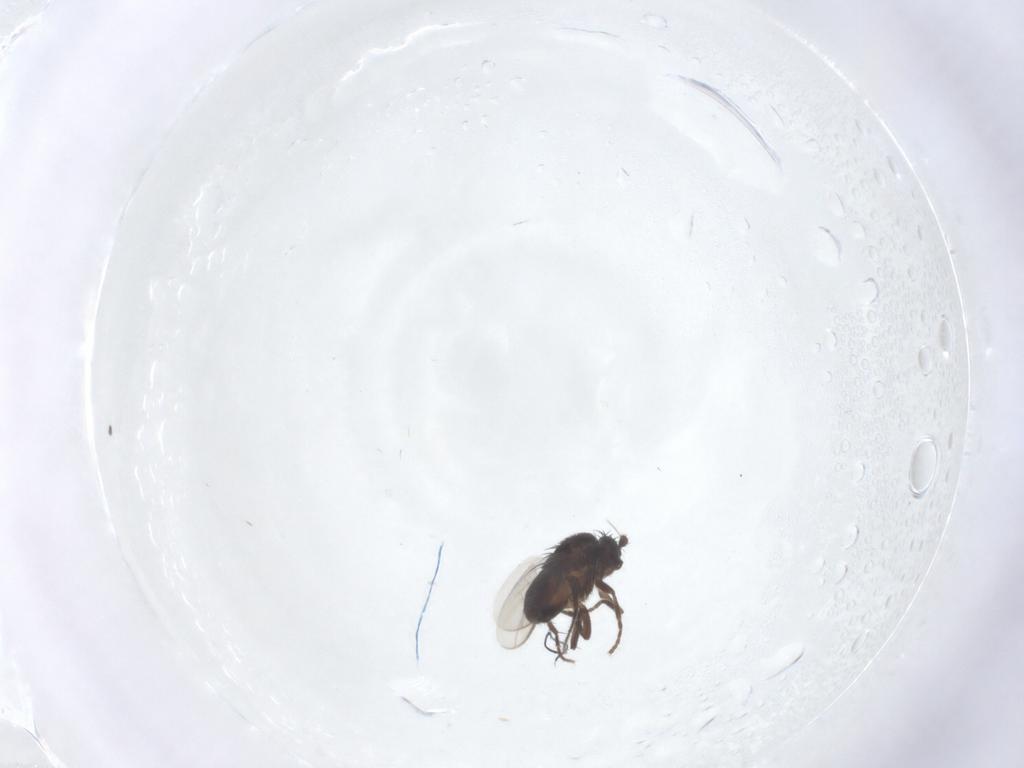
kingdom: Animalia
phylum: Arthropoda
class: Insecta
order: Diptera
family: Sphaeroceridae
